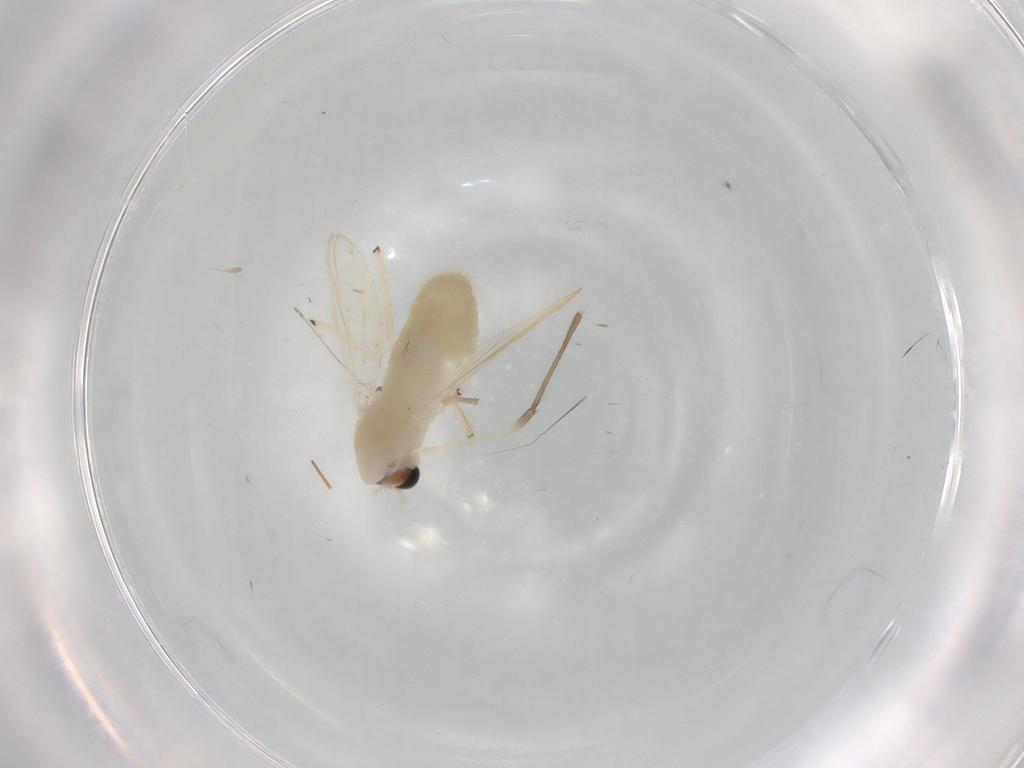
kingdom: Animalia
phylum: Arthropoda
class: Insecta
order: Diptera
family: Chironomidae
